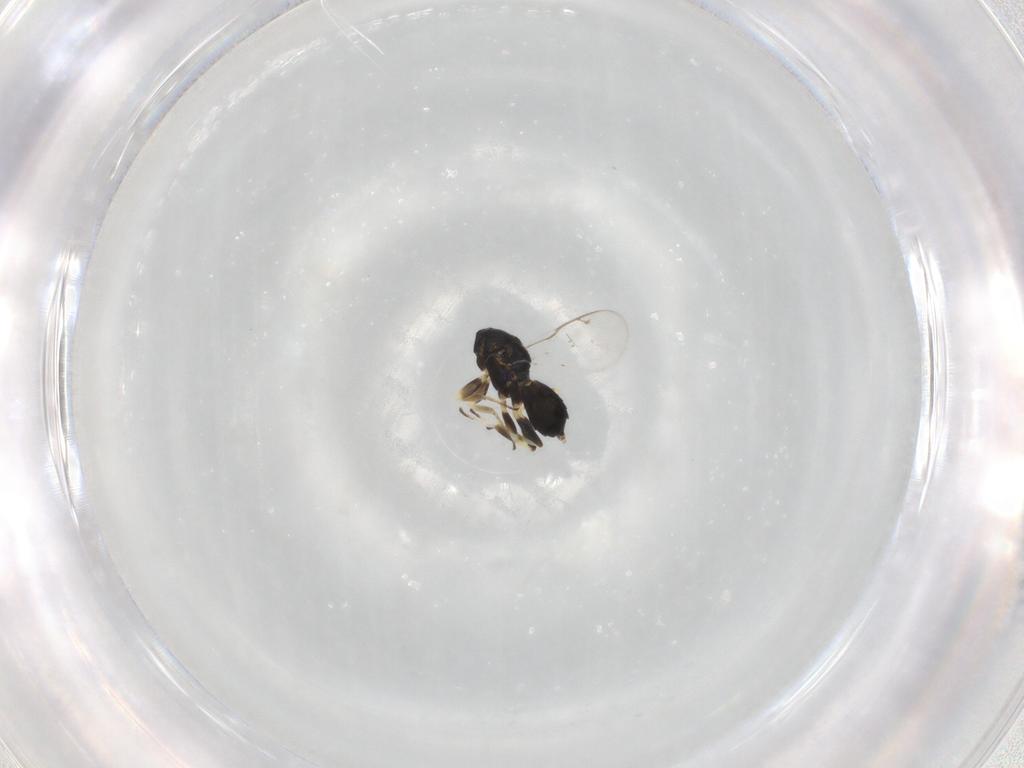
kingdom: Animalia
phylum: Arthropoda
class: Insecta
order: Hymenoptera
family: Eupelmidae
